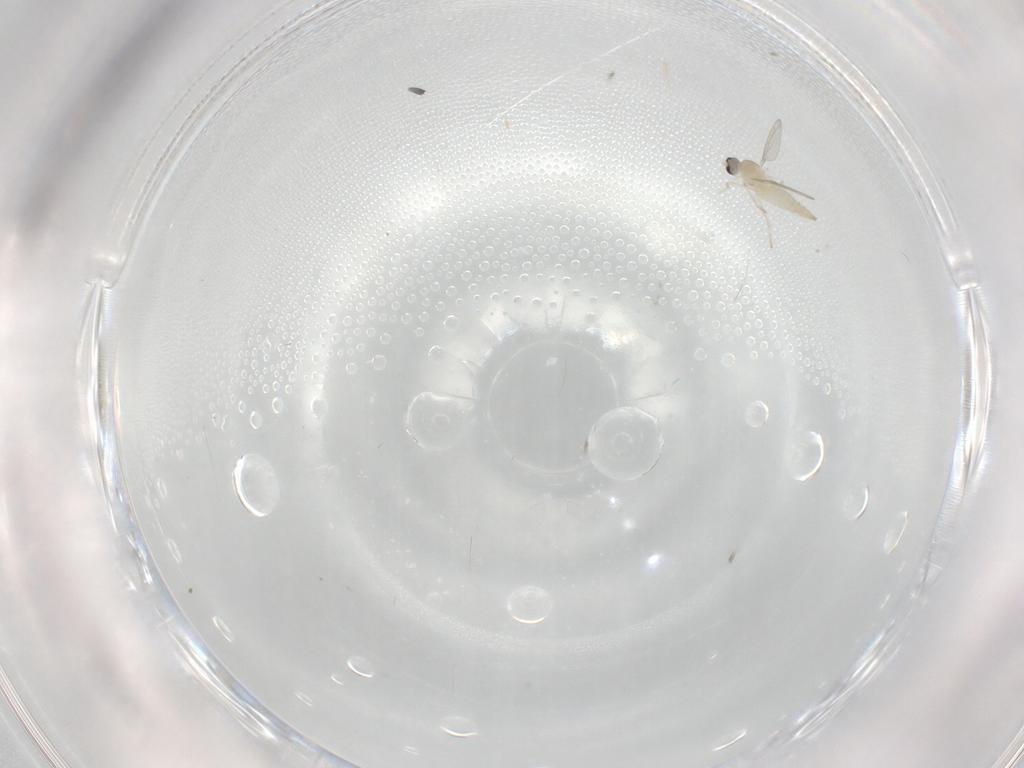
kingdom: Animalia
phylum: Arthropoda
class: Insecta
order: Diptera
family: Cecidomyiidae
